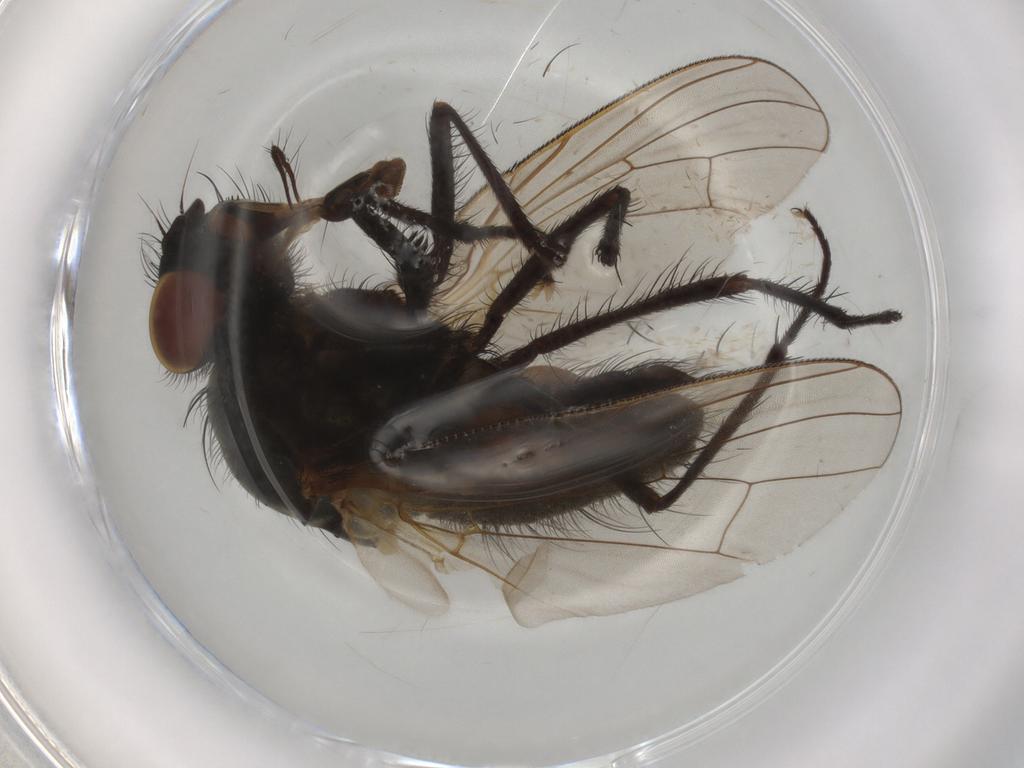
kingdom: Animalia
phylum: Arthropoda
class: Insecta
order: Diptera
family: Anthomyiidae
